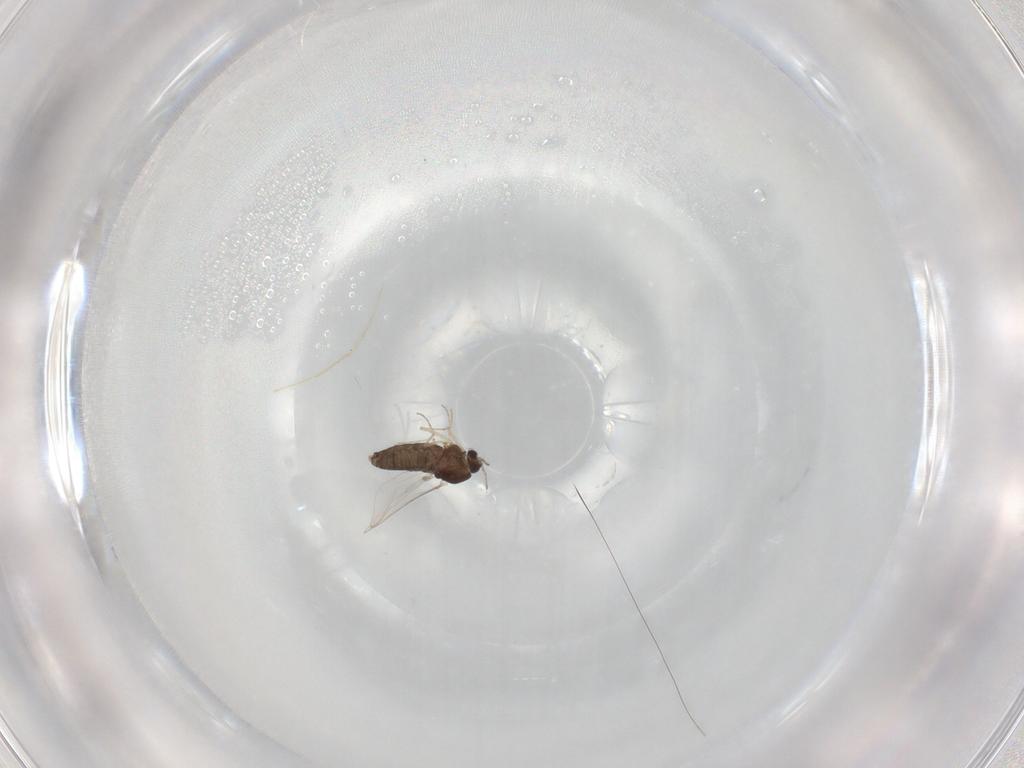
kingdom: Animalia
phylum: Arthropoda
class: Insecta
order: Diptera
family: Chironomidae
